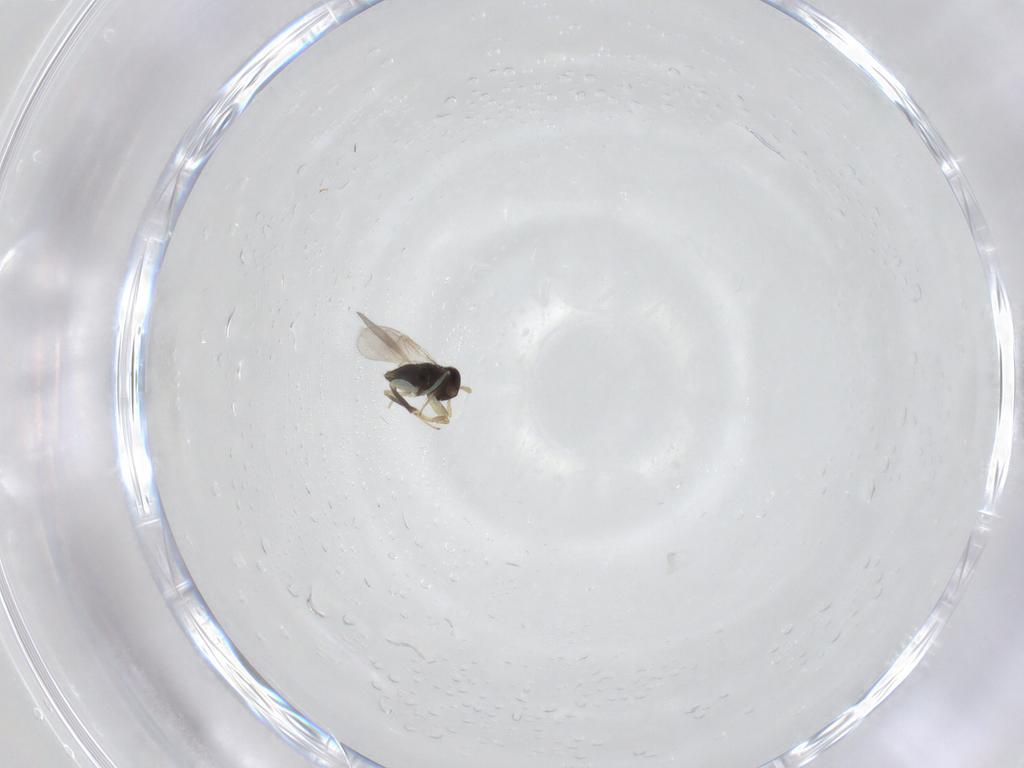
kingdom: Animalia
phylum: Arthropoda
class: Insecta
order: Hymenoptera
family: Aphelinidae
